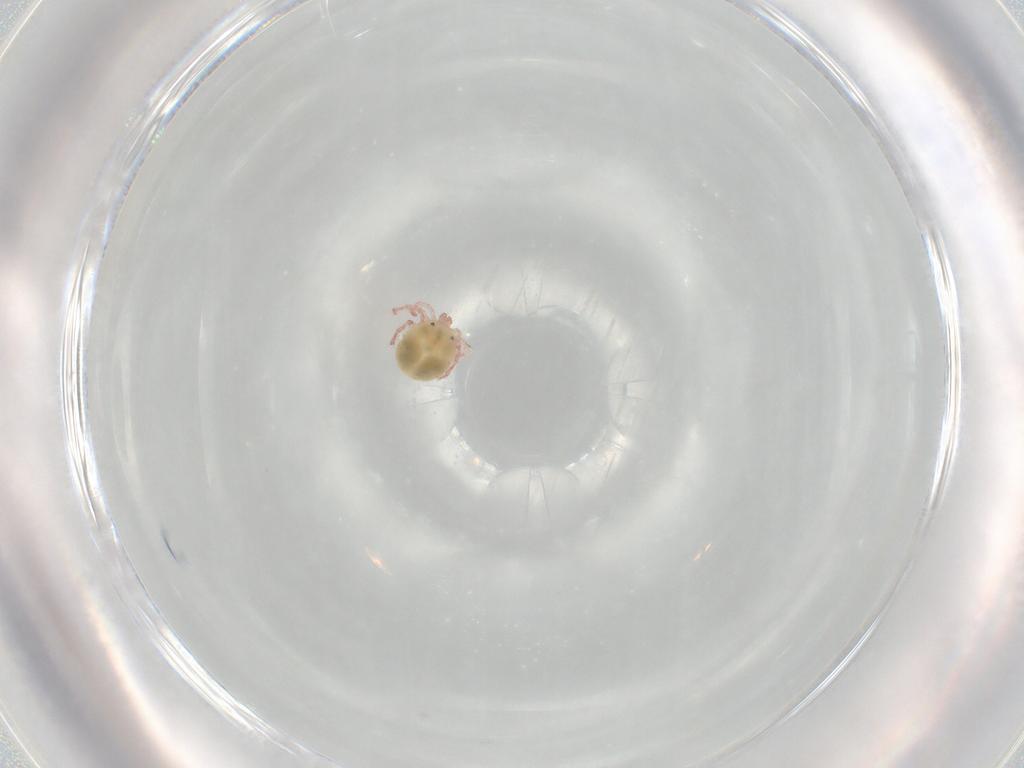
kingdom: Animalia
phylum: Arthropoda
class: Arachnida
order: Trombidiformes
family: Pionidae
